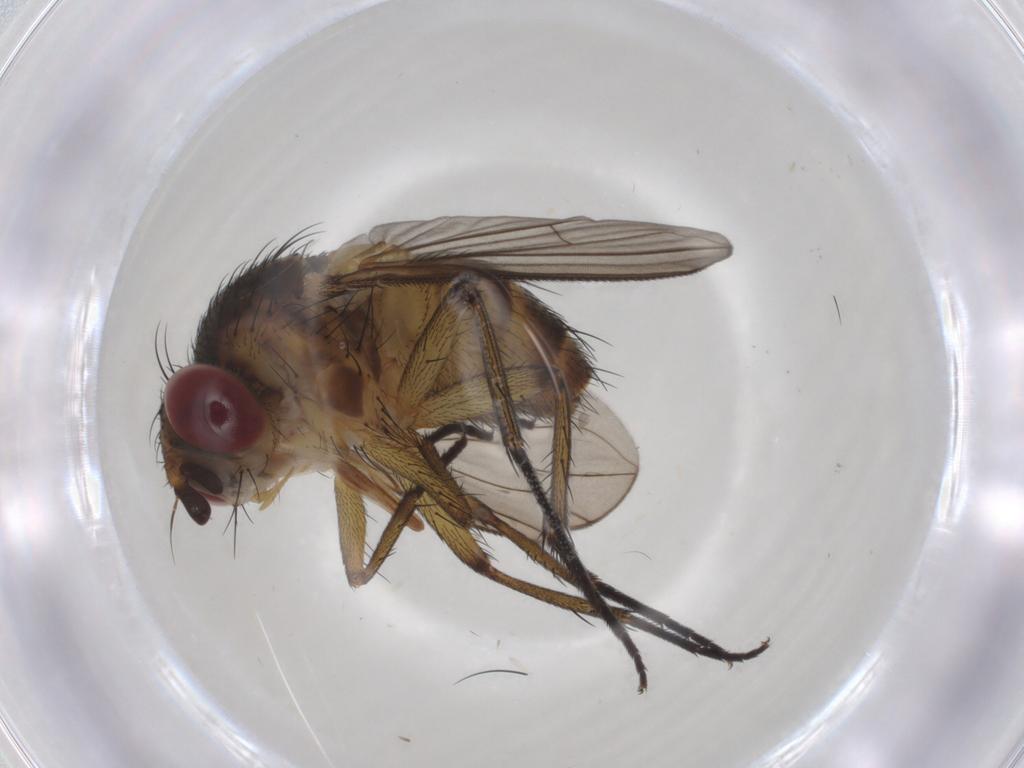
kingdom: Animalia
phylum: Arthropoda
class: Insecta
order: Diptera
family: Tachinidae
